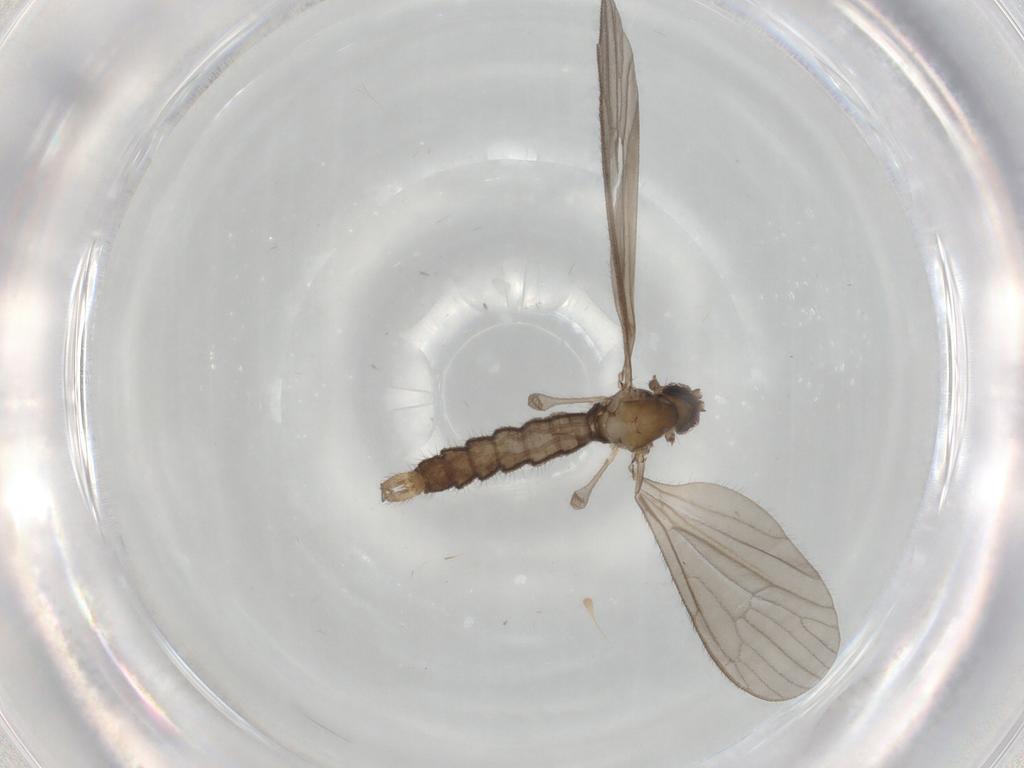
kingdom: Animalia
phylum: Arthropoda
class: Insecta
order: Diptera
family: Limoniidae
